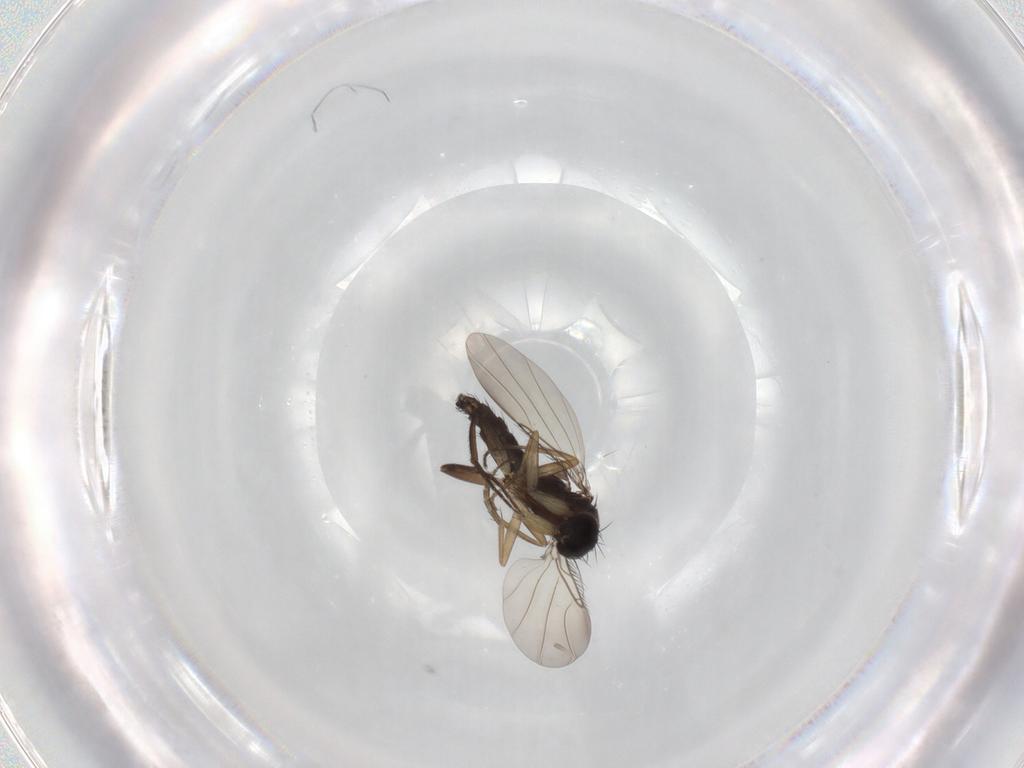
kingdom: Animalia
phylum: Arthropoda
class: Insecta
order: Diptera
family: Phoridae
